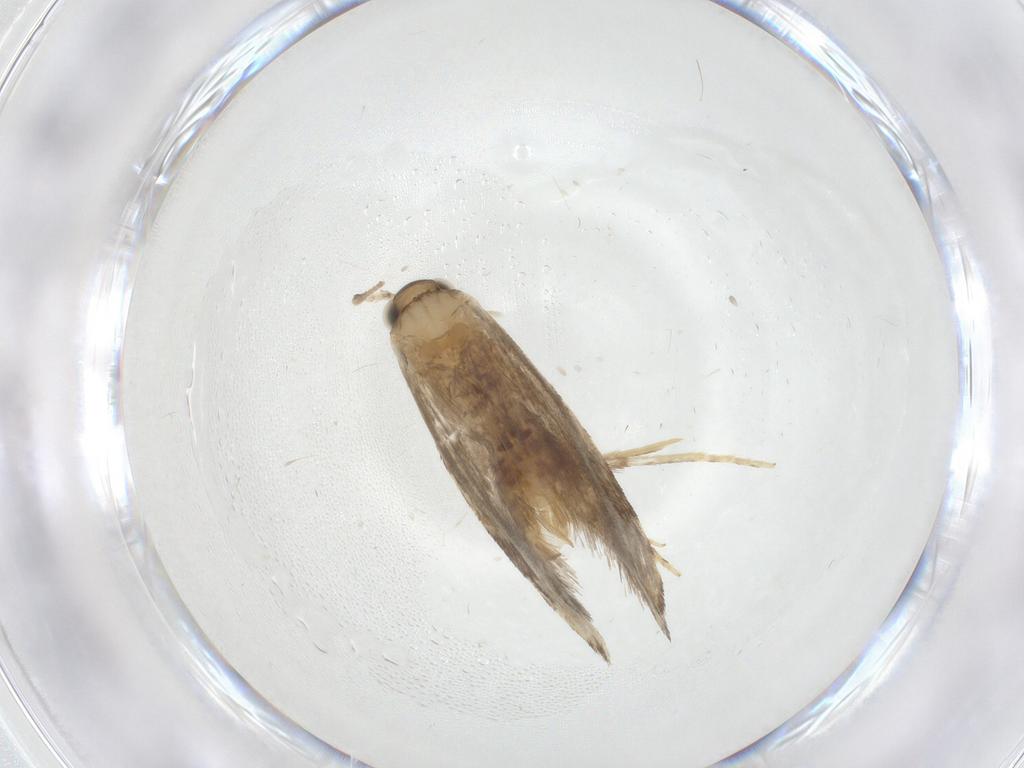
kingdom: Animalia
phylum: Arthropoda
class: Insecta
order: Lepidoptera
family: Tineidae
